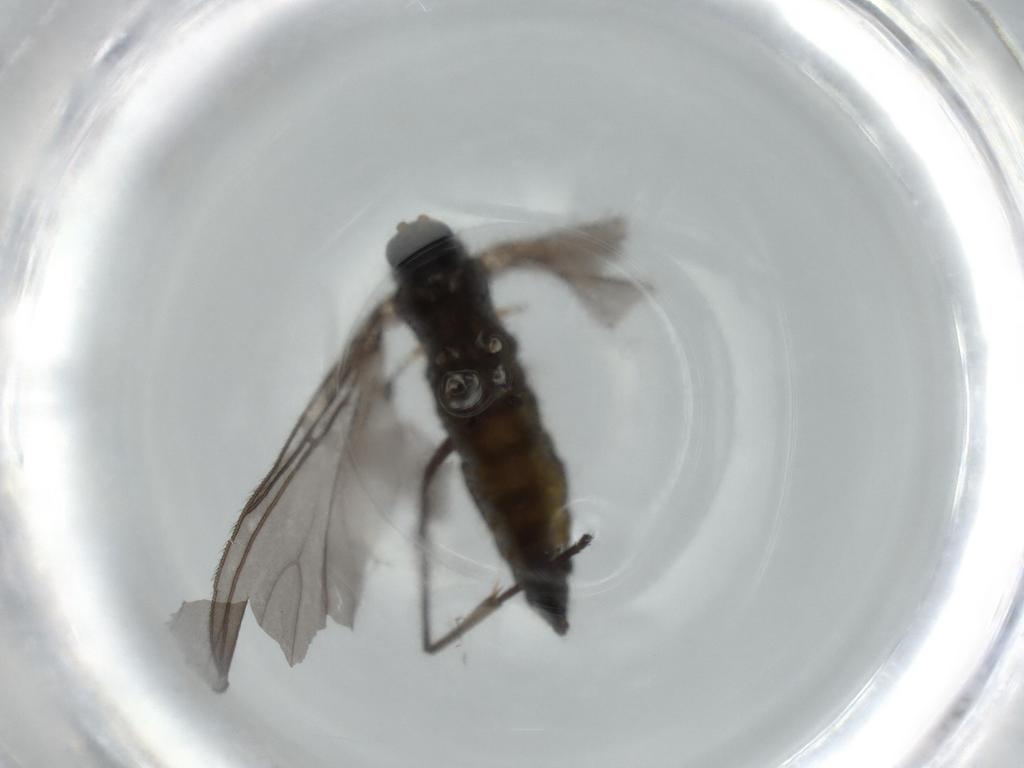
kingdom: Animalia
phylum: Arthropoda
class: Insecta
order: Diptera
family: Sciaridae
